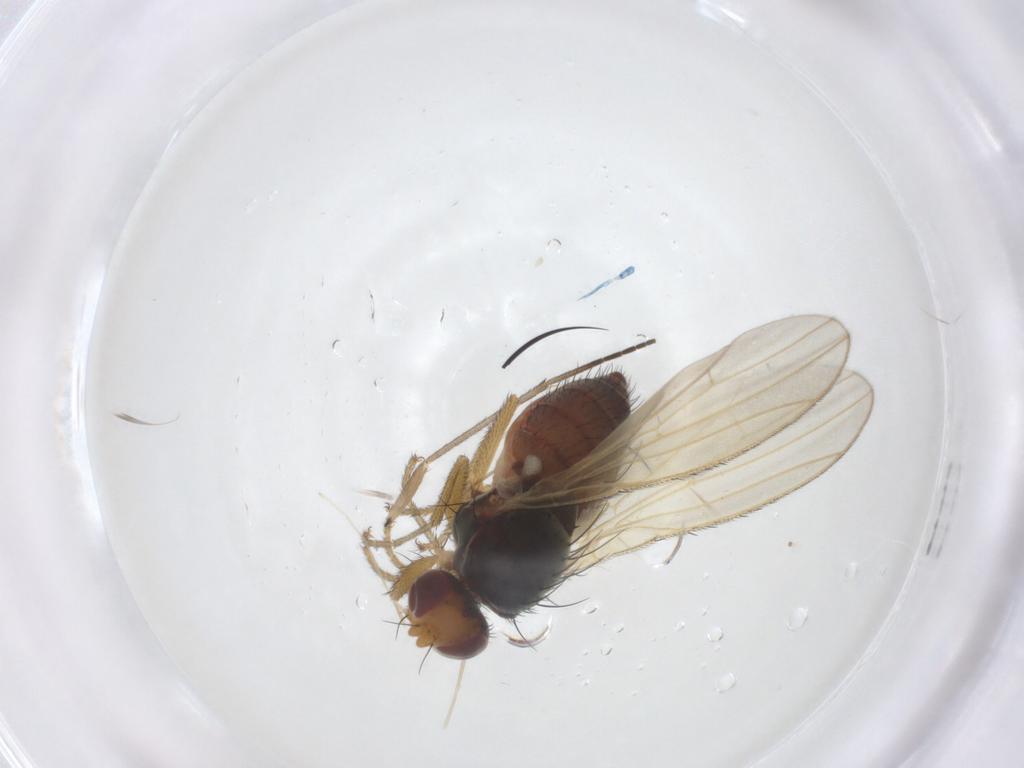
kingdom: Animalia
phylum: Arthropoda
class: Insecta
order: Diptera
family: Heleomyzidae
